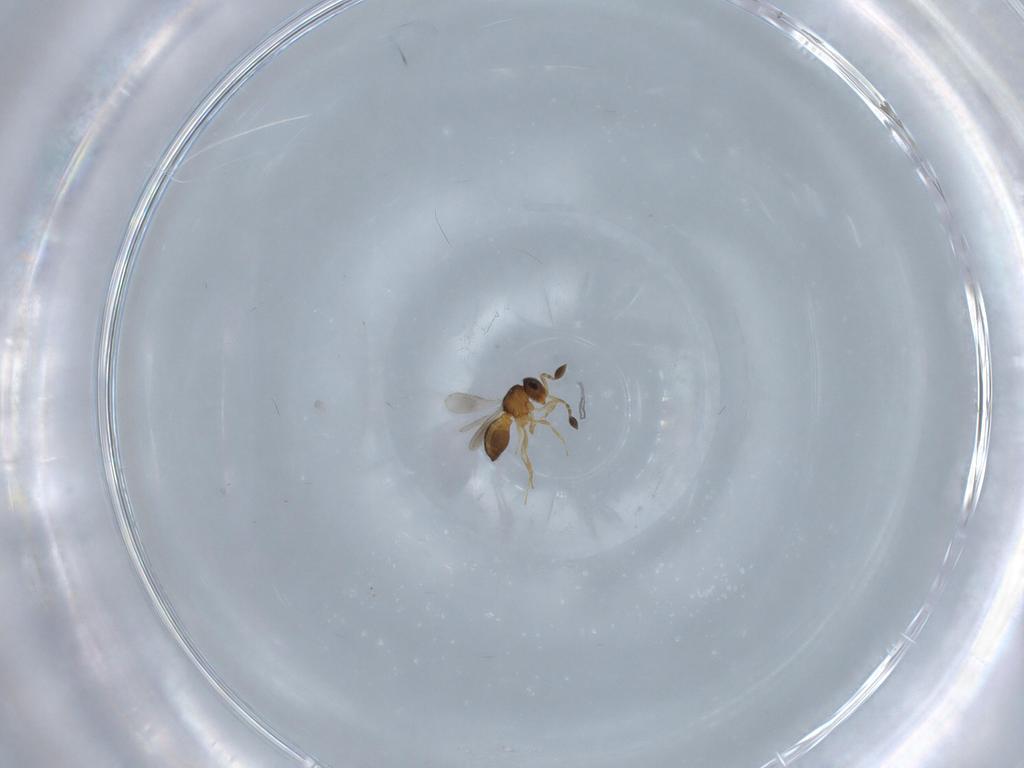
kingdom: Animalia
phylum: Arthropoda
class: Insecta
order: Hymenoptera
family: Scelionidae
